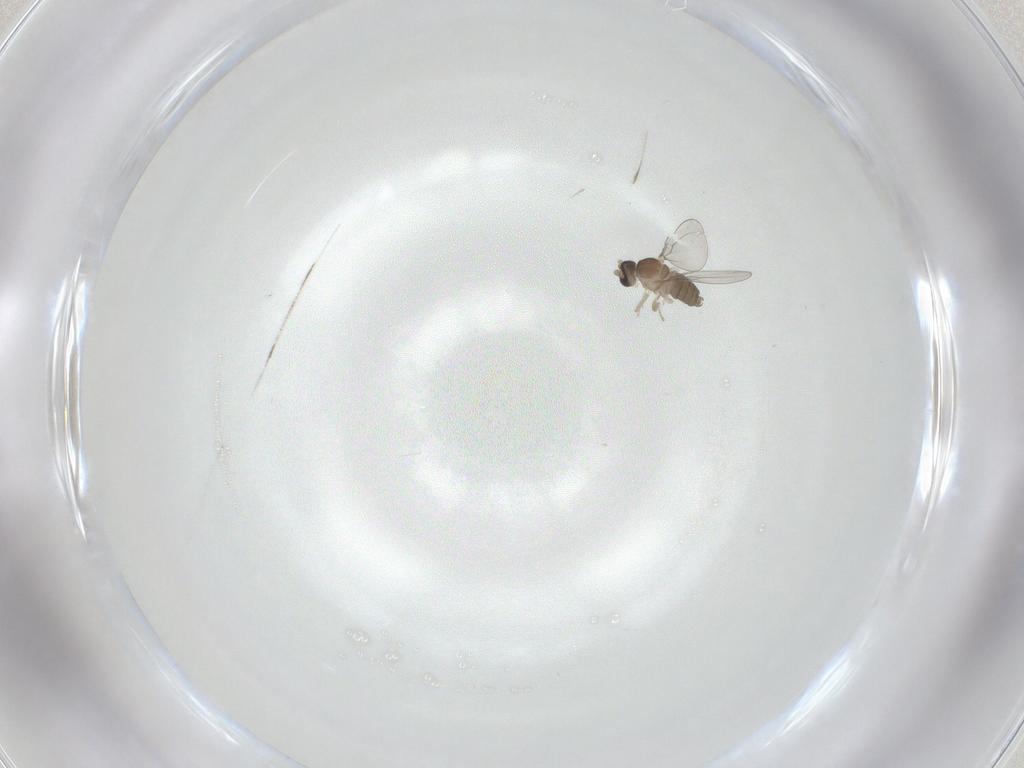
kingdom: Animalia
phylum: Arthropoda
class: Insecta
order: Diptera
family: Cecidomyiidae
